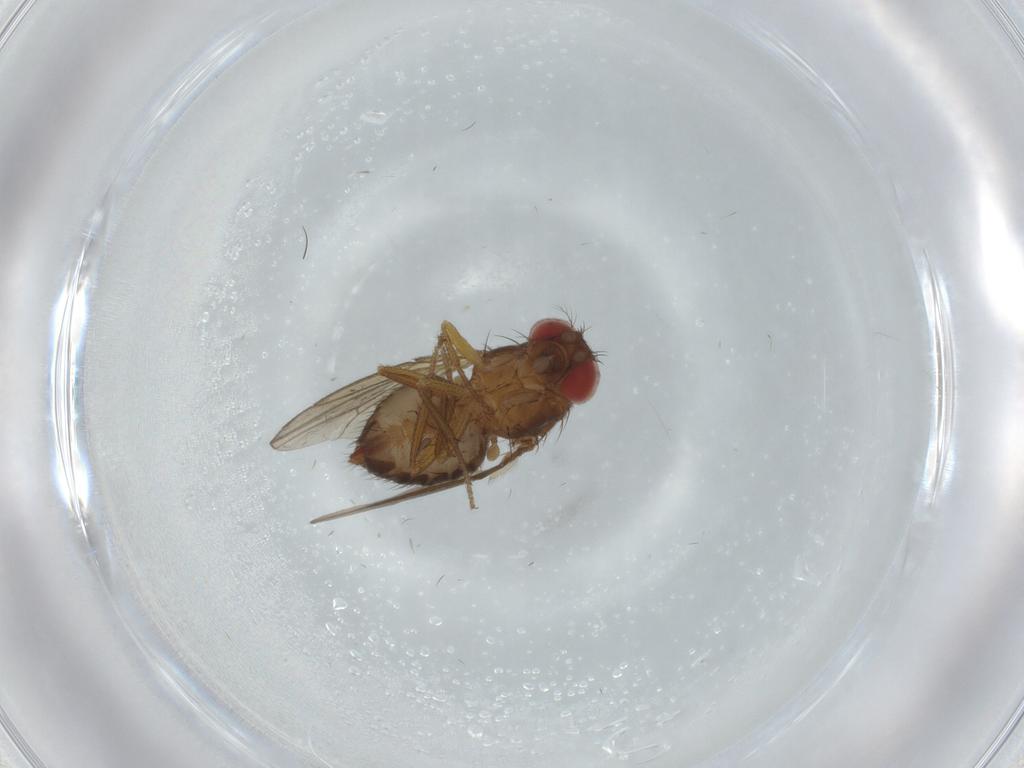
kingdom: Animalia
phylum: Arthropoda
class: Insecta
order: Diptera
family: Drosophilidae
